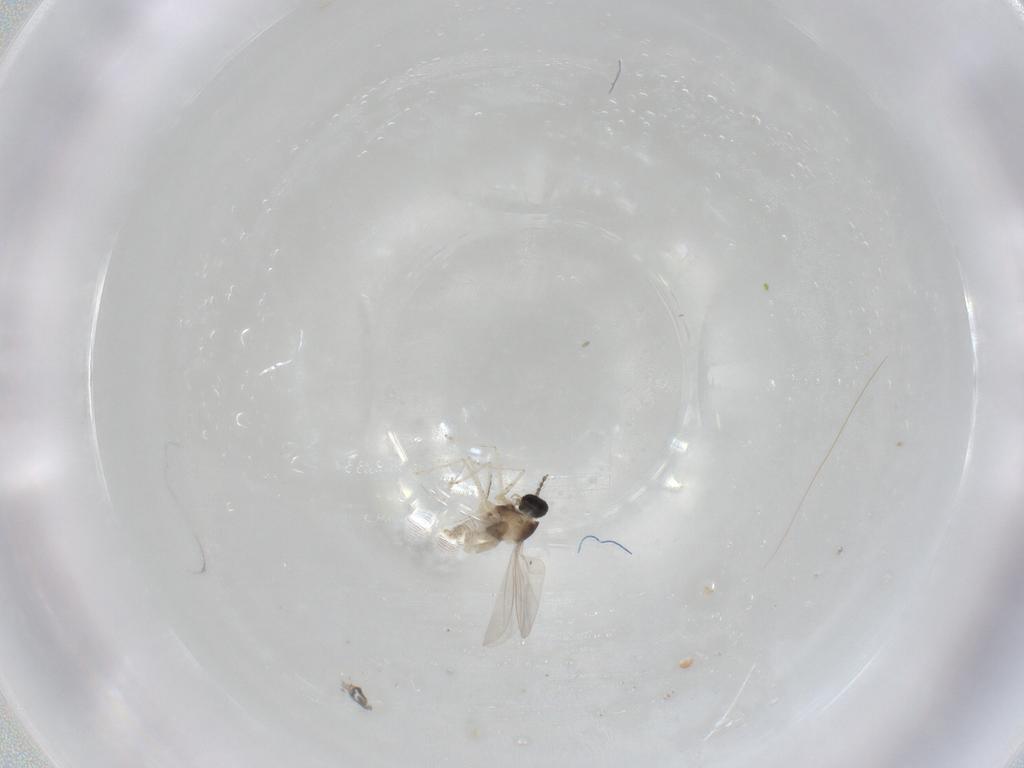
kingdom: Animalia
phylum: Arthropoda
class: Insecta
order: Diptera
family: Cecidomyiidae
